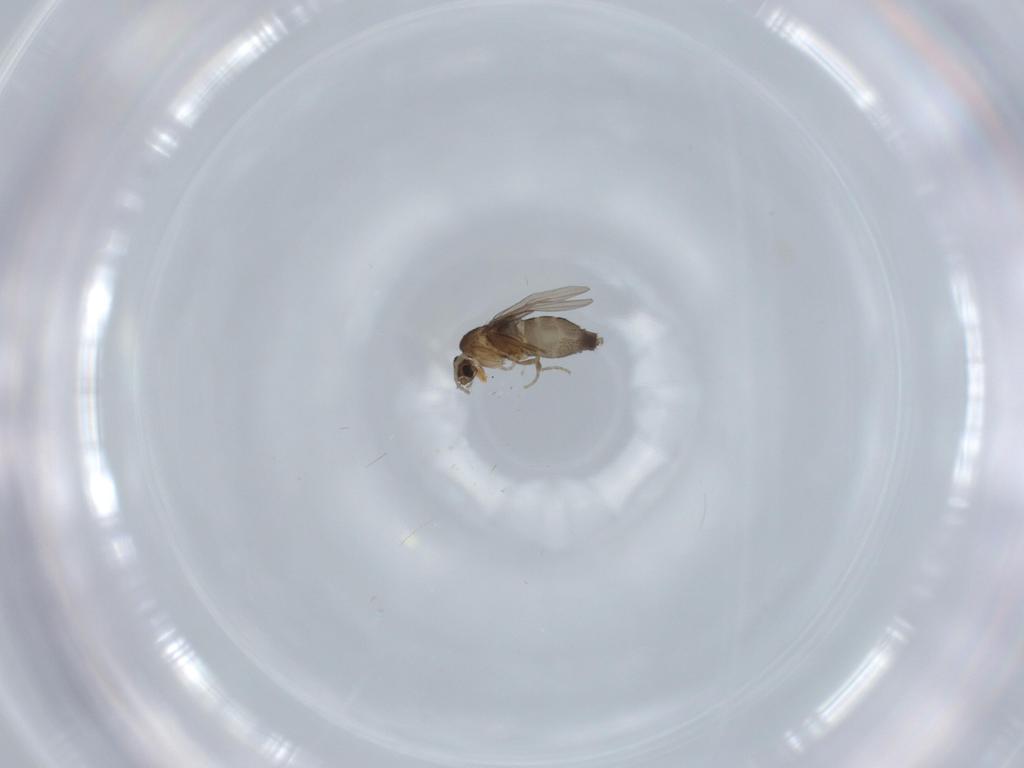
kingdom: Animalia
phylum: Arthropoda
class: Insecta
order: Diptera
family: Phoridae
